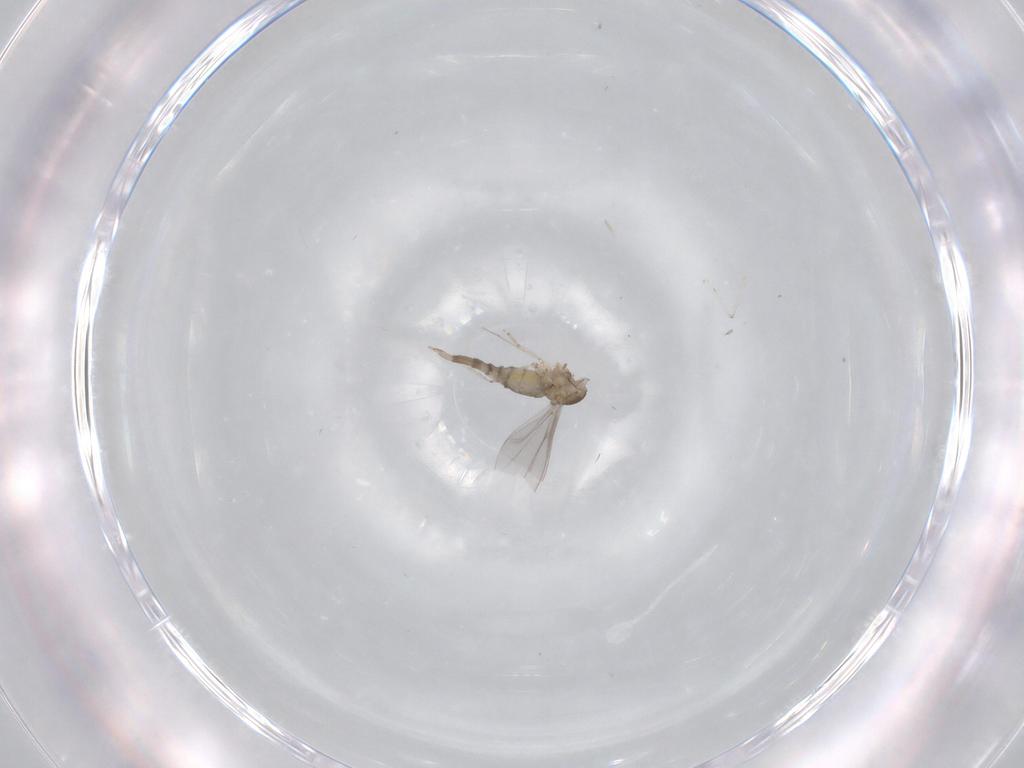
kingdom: Animalia
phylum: Arthropoda
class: Insecta
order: Diptera
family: Cecidomyiidae
